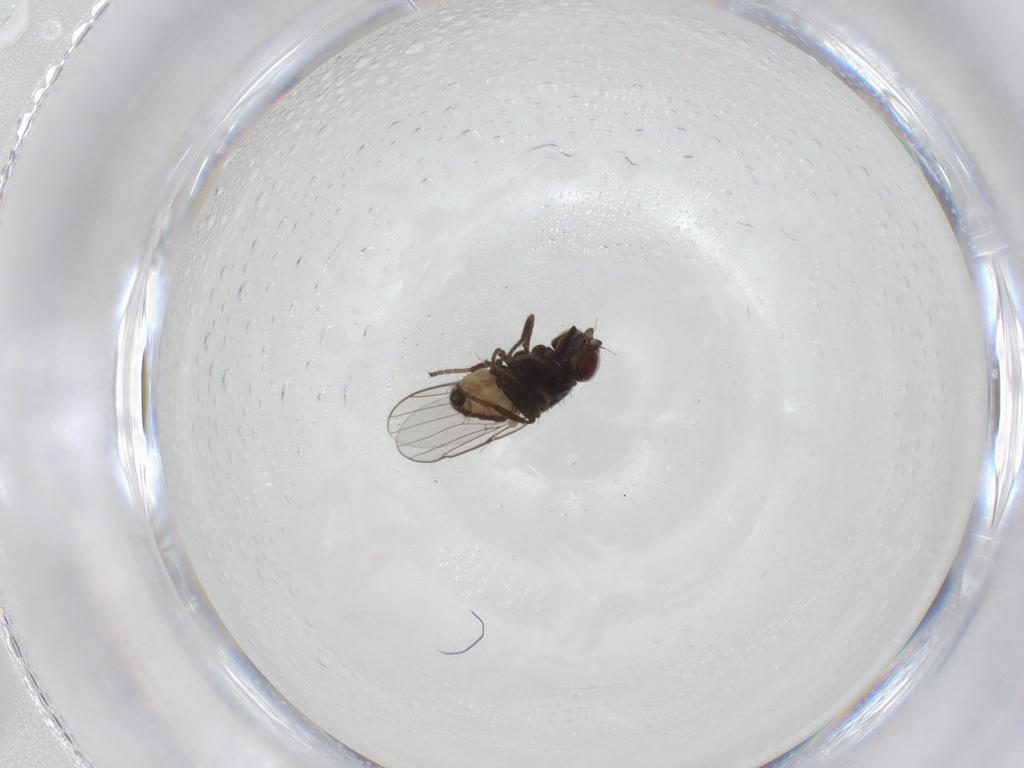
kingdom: Animalia
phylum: Arthropoda
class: Insecta
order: Diptera
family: Chloropidae
